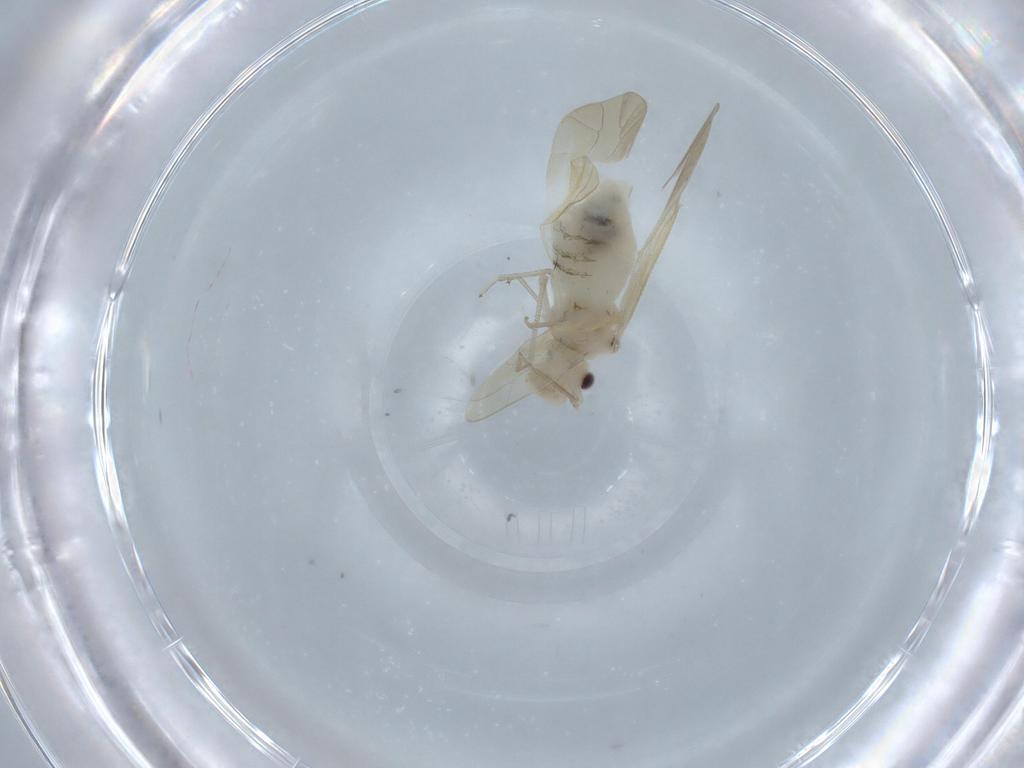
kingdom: Animalia
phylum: Arthropoda
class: Insecta
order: Psocodea
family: Caeciliusidae
